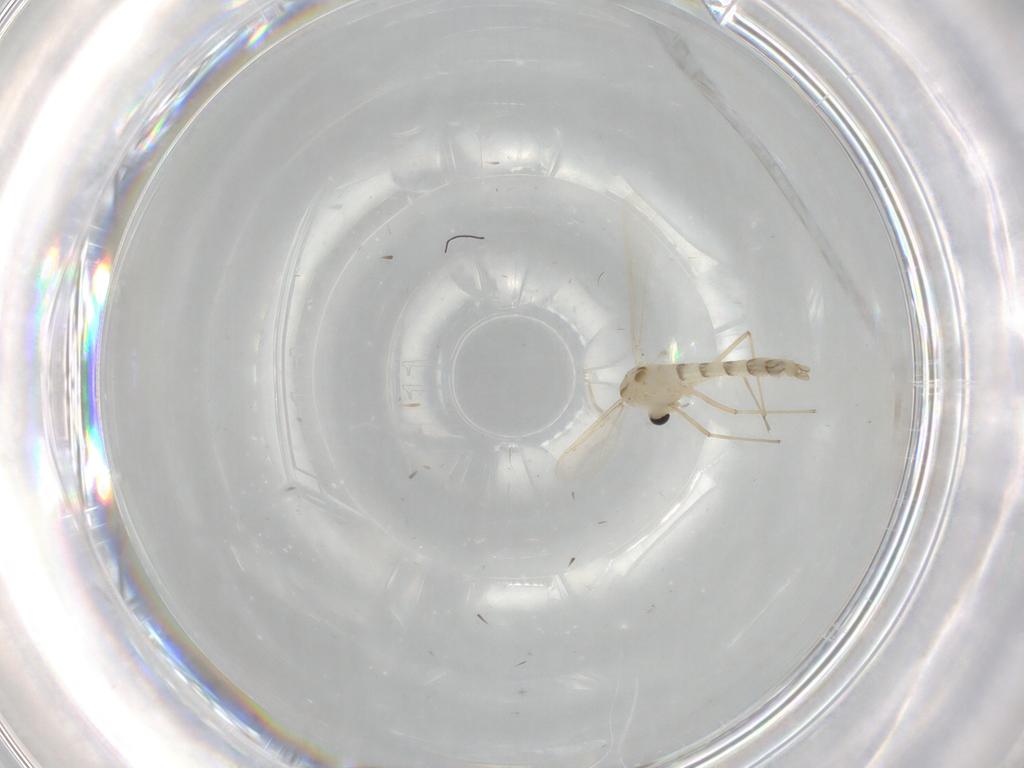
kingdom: Animalia
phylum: Arthropoda
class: Insecta
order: Diptera
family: Chironomidae
